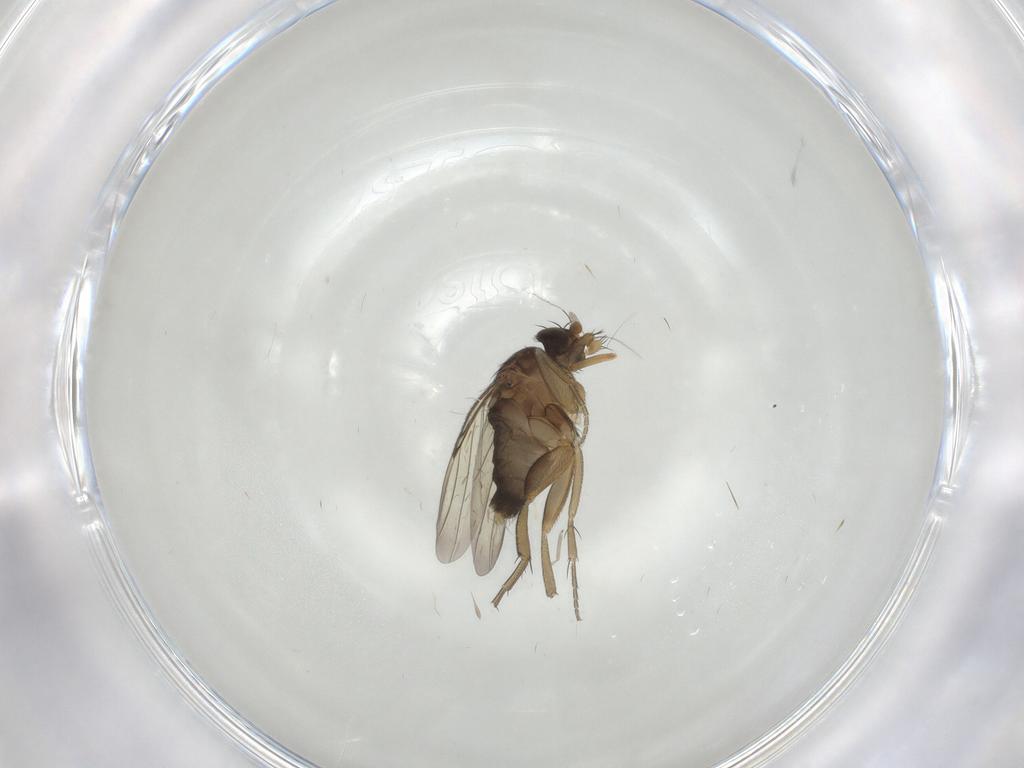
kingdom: Animalia
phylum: Arthropoda
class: Insecta
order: Diptera
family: Phoridae
